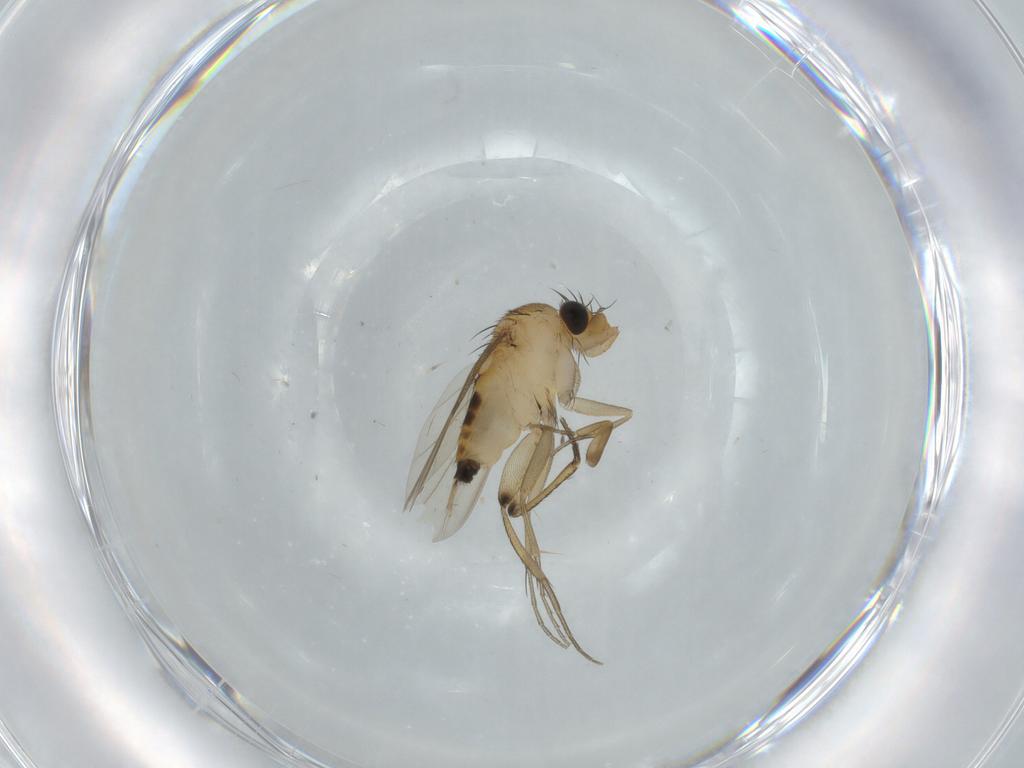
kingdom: Animalia
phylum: Arthropoda
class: Insecta
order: Diptera
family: Phoridae
